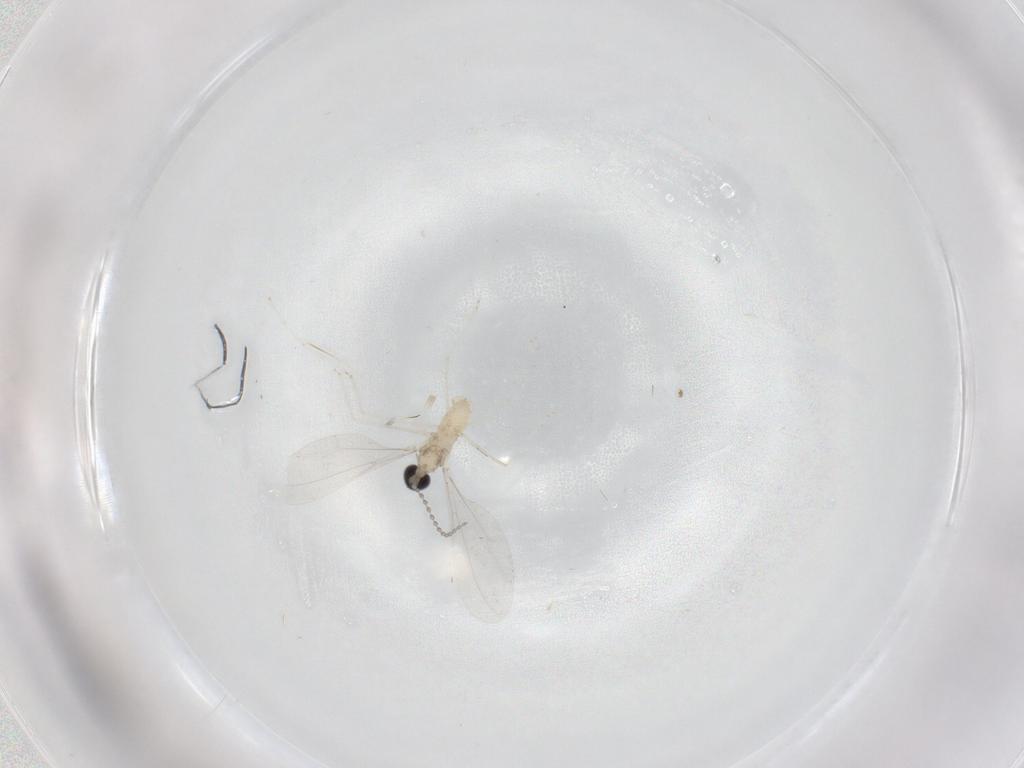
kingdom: Animalia
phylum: Arthropoda
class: Insecta
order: Diptera
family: Cecidomyiidae
